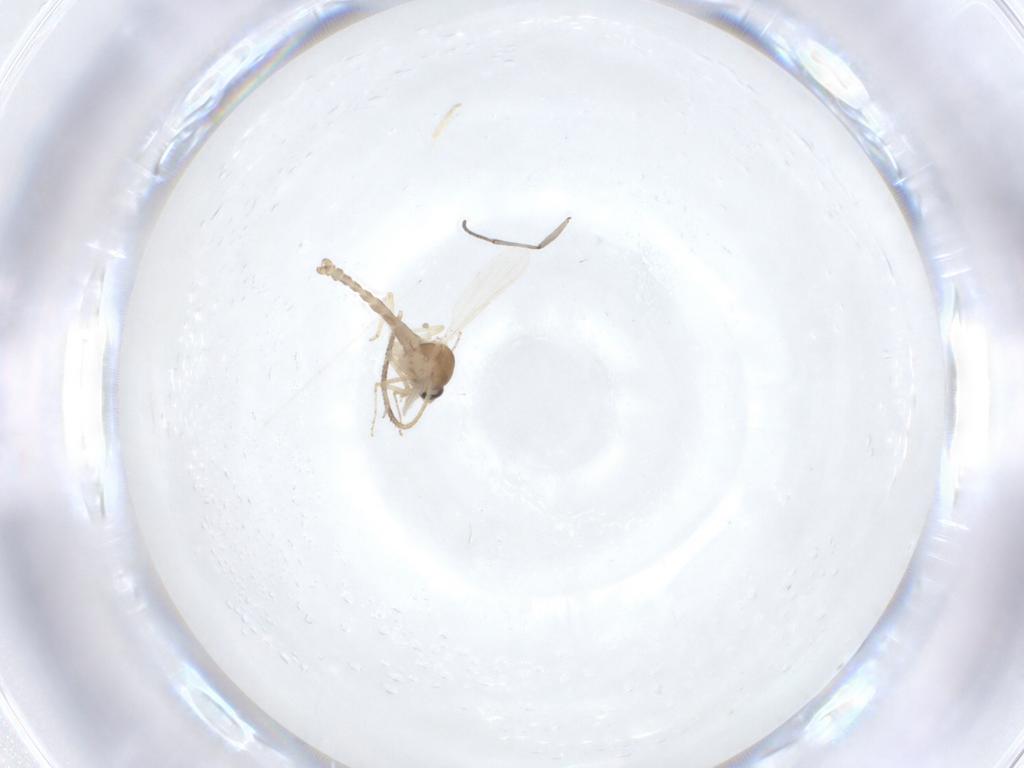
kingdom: Animalia
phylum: Arthropoda
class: Insecta
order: Diptera
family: Ceratopogonidae
